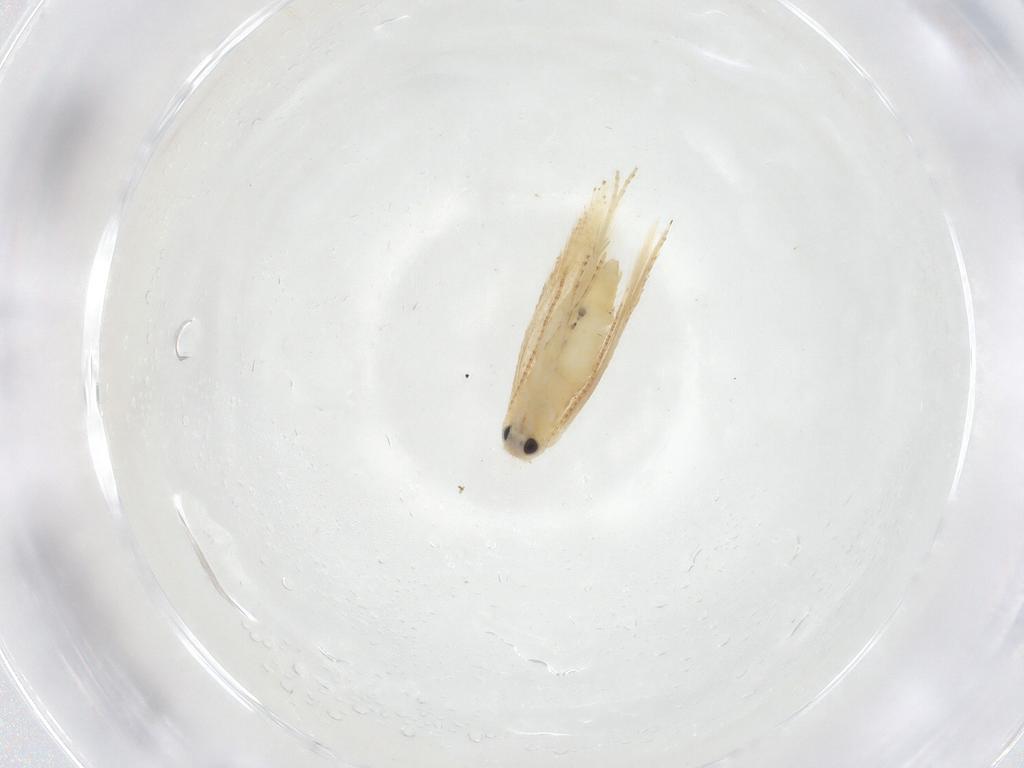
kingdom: Animalia
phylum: Arthropoda
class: Insecta
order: Lepidoptera
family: Depressariidae
